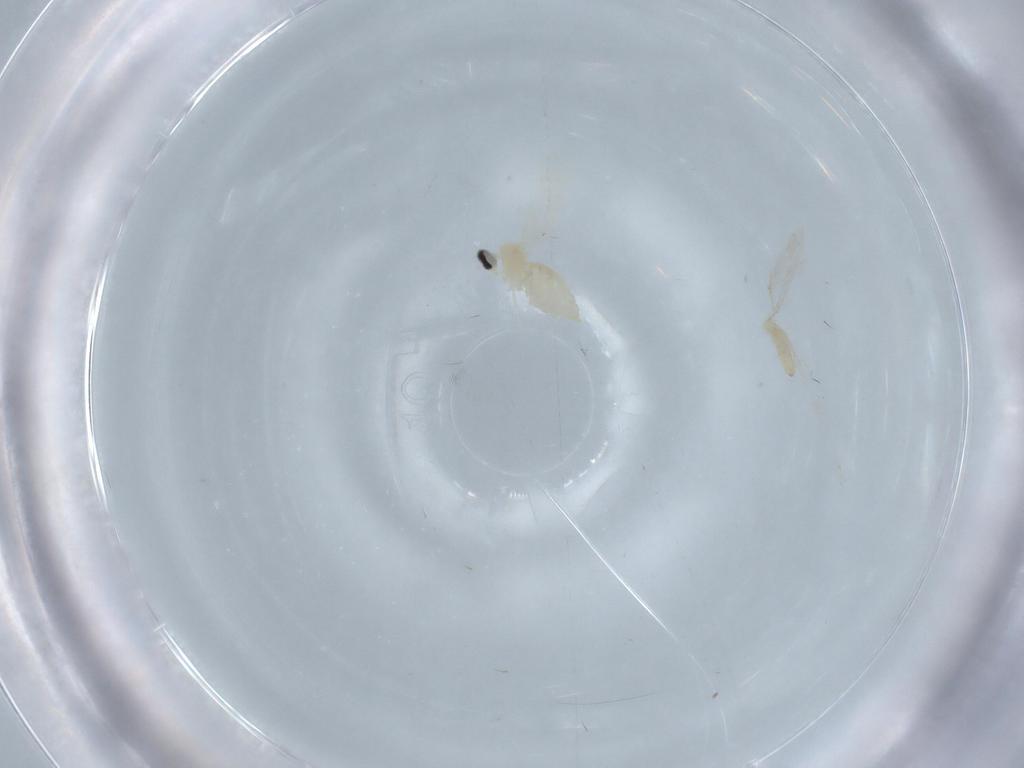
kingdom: Animalia
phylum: Arthropoda
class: Insecta
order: Diptera
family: Cecidomyiidae
